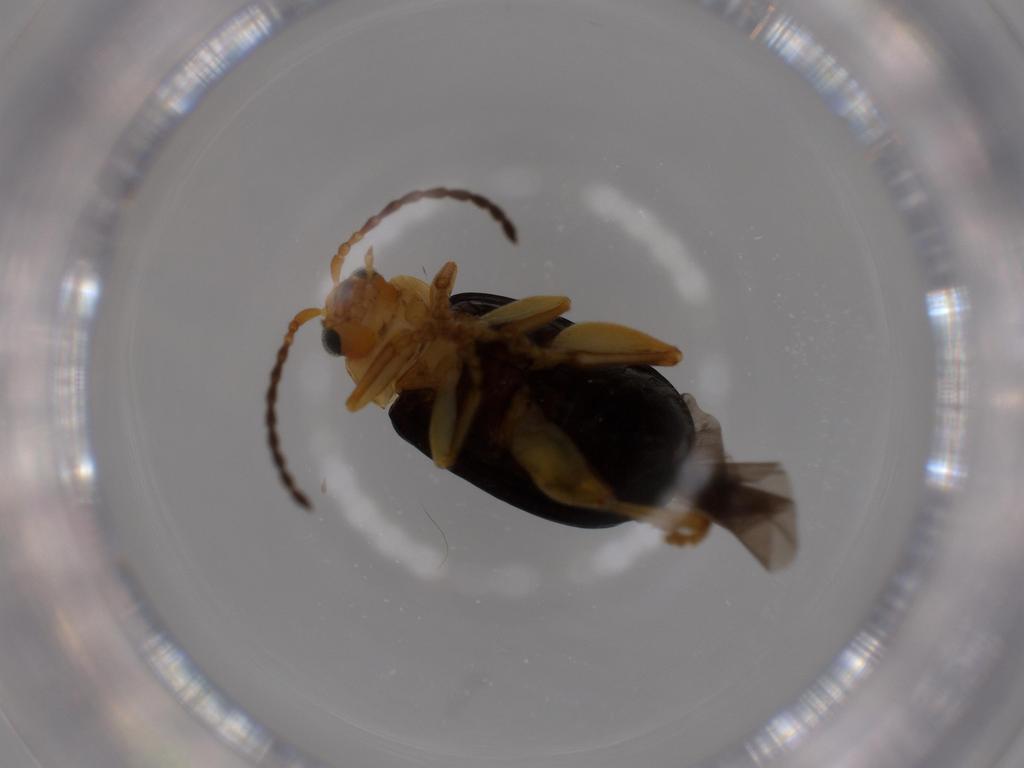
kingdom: Animalia
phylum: Arthropoda
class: Insecta
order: Coleoptera
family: Chrysomelidae
